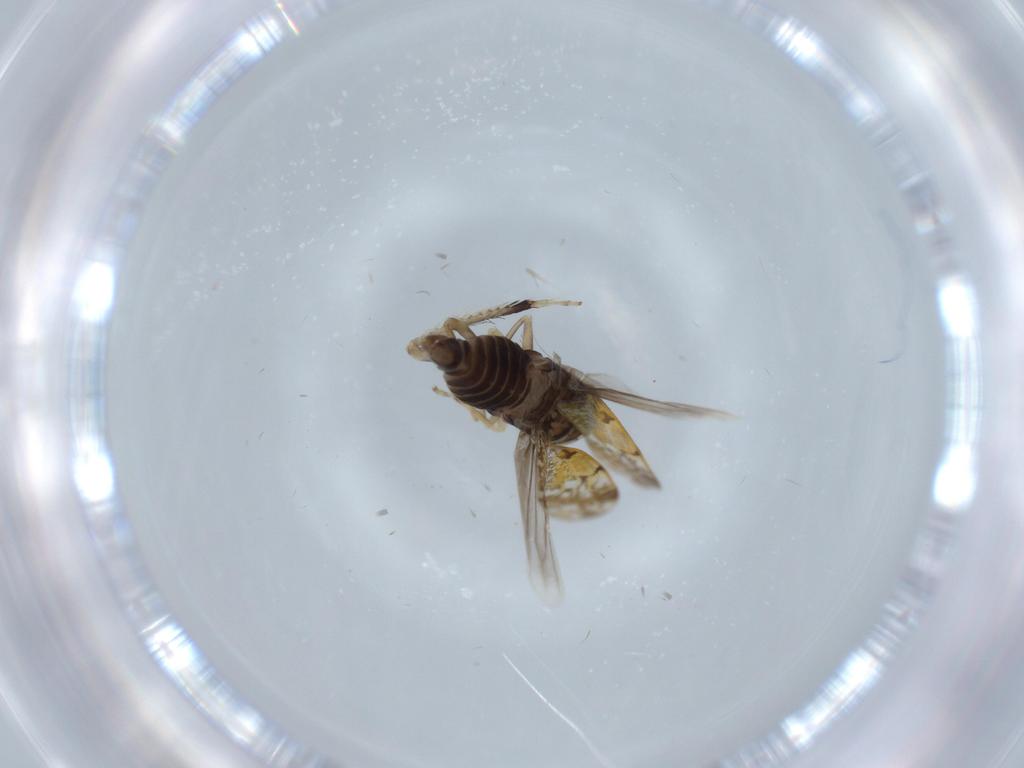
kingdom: Animalia
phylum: Arthropoda
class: Insecta
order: Hemiptera
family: Cicadellidae
